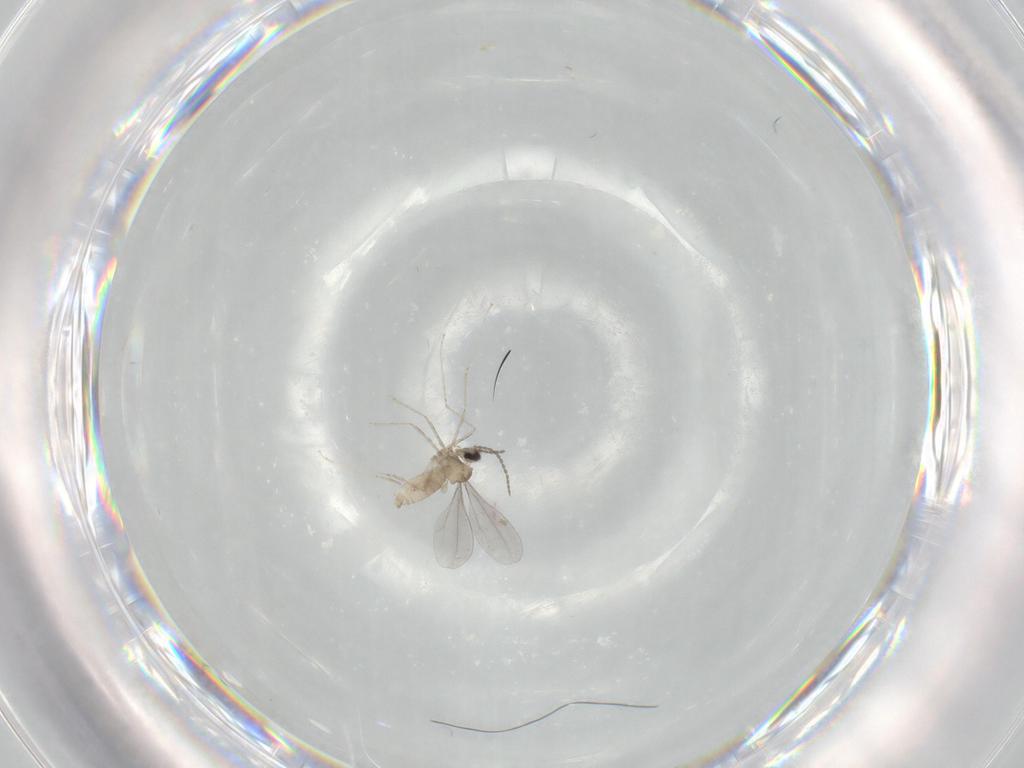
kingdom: Animalia
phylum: Arthropoda
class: Insecta
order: Diptera
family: Cecidomyiidae
